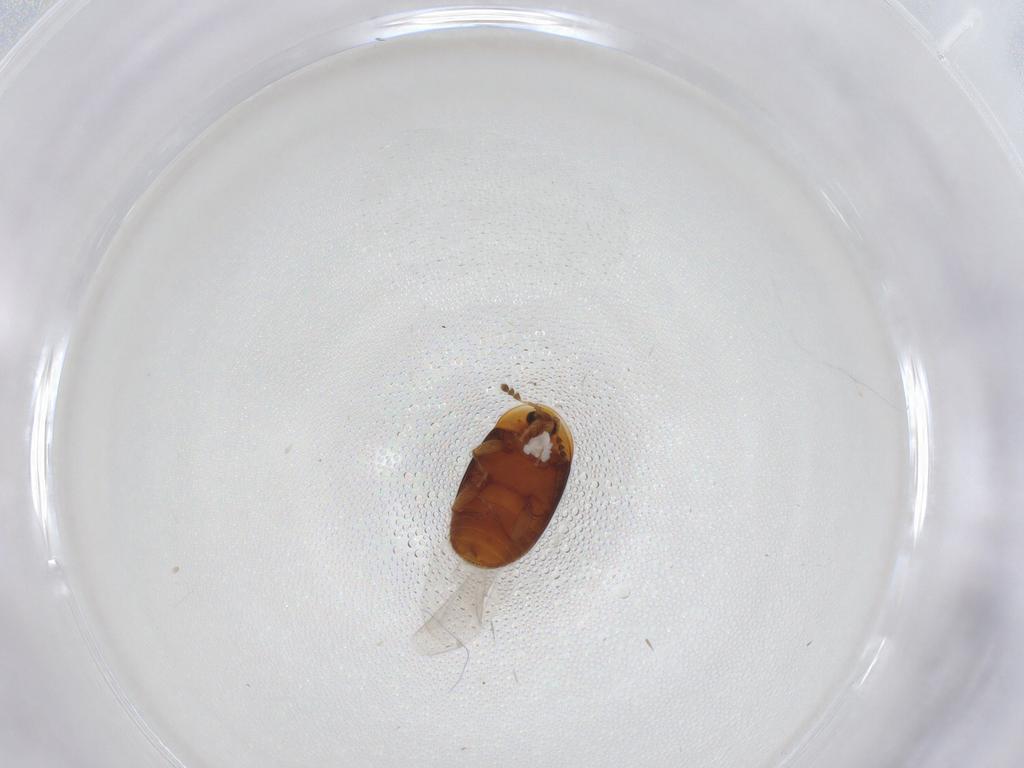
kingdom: Animalia
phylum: Arthropoda
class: Insecta
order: Coleoptera
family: Corylophidae
